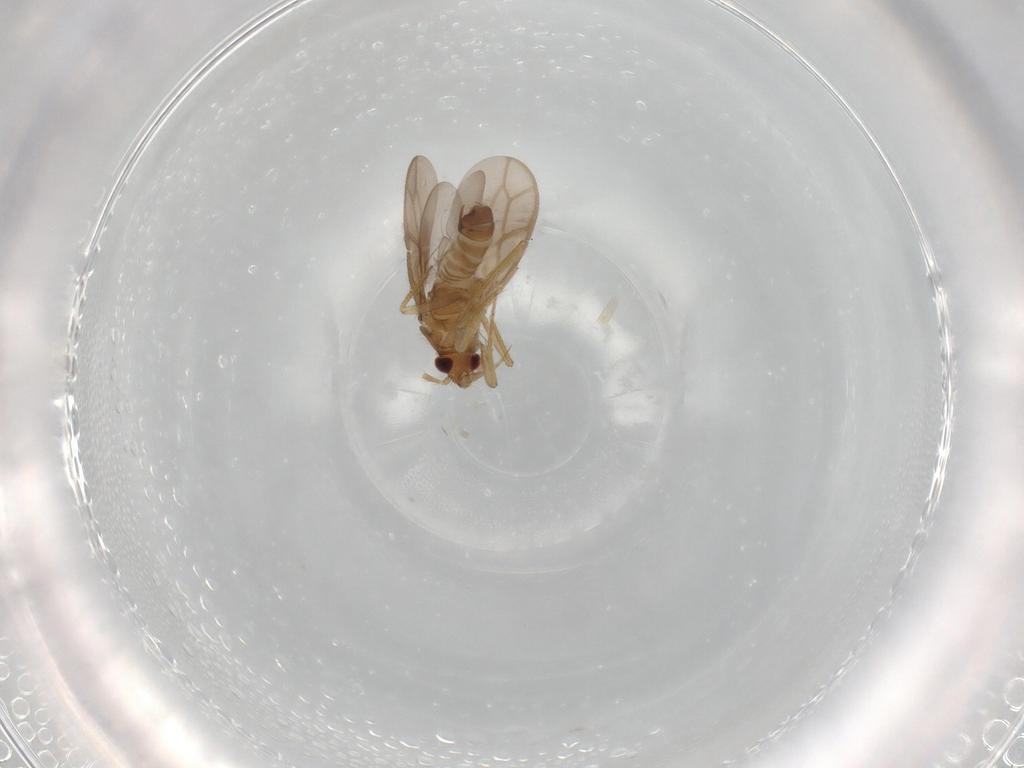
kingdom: Animalia
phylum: Arthropoda
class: Insecta
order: Hemiptera
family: Ceratocombidae
